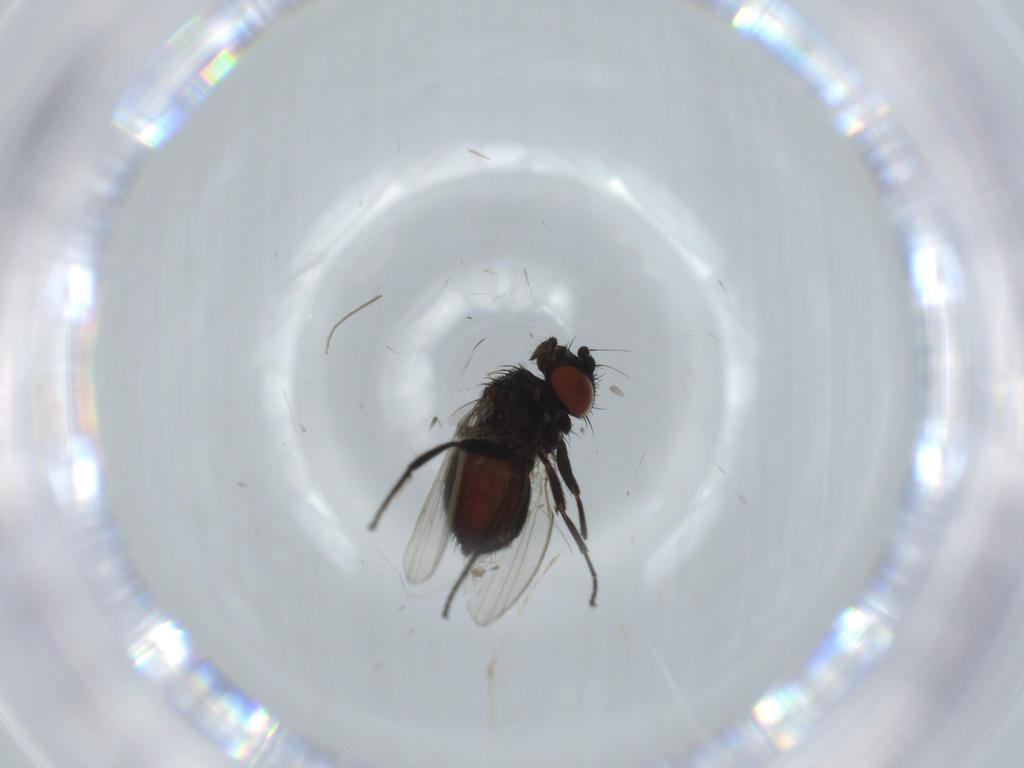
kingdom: Animalia
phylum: Arthropoda
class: Insecta
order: Diptera
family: Milichiidae
